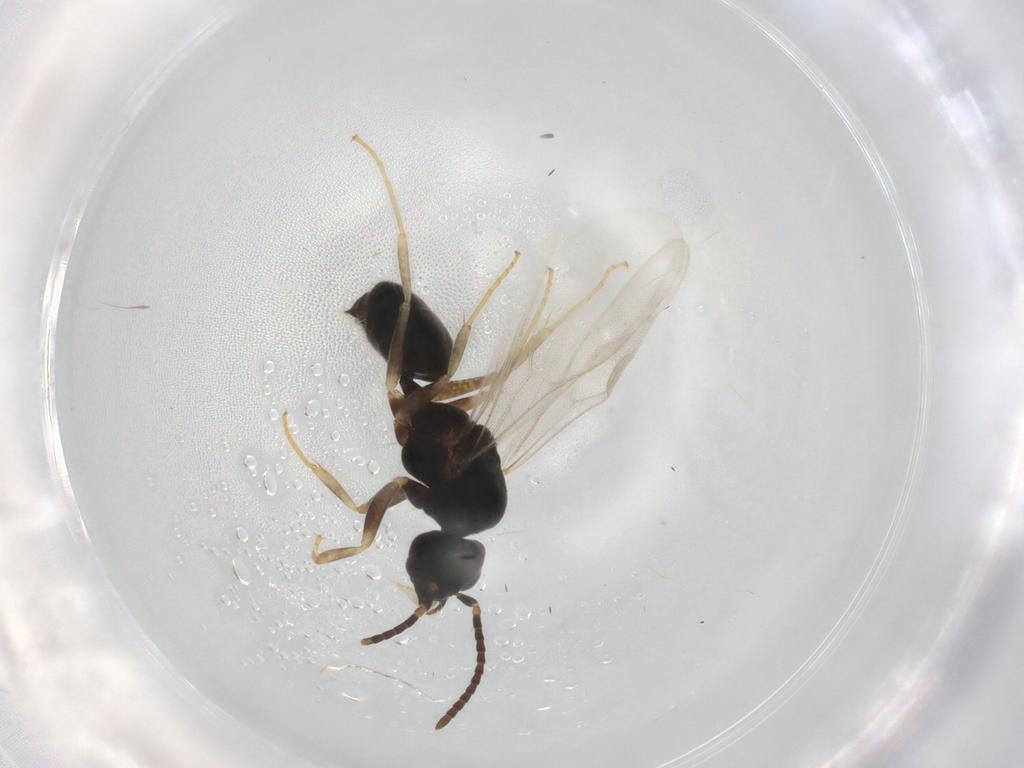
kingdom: Animalia
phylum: Arthropoda
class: Insecta
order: Hymenoptera
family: Formicidae
